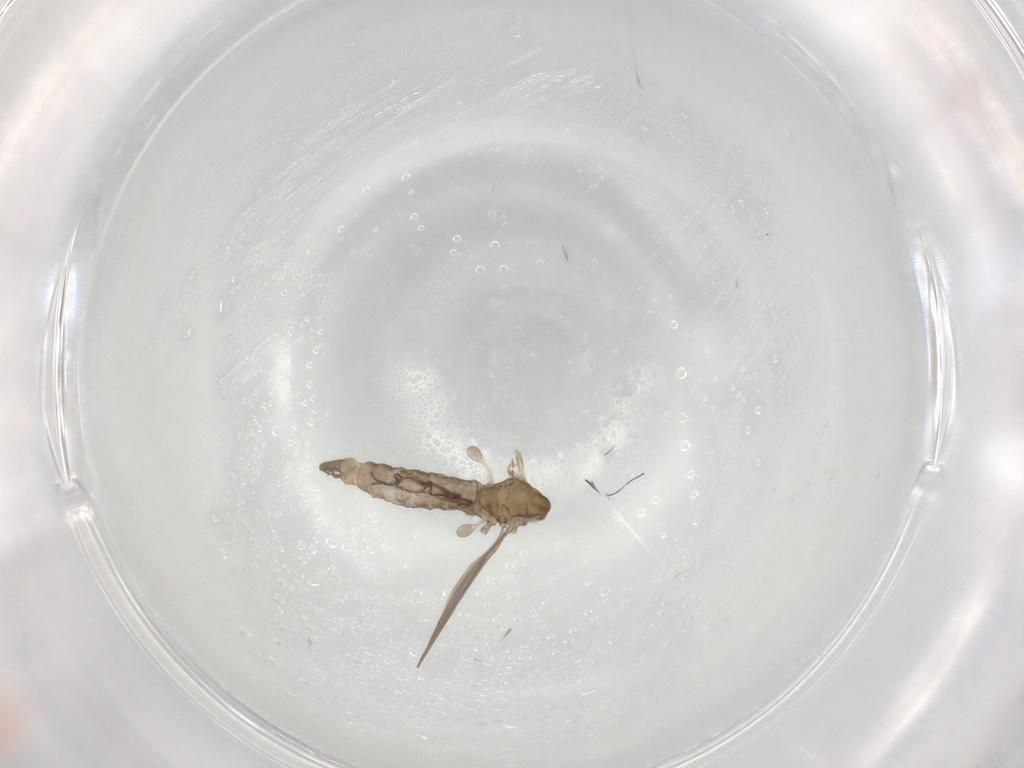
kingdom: Animalia
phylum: Arthropoda
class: Insecta
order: Diptera
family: Limoniidae
